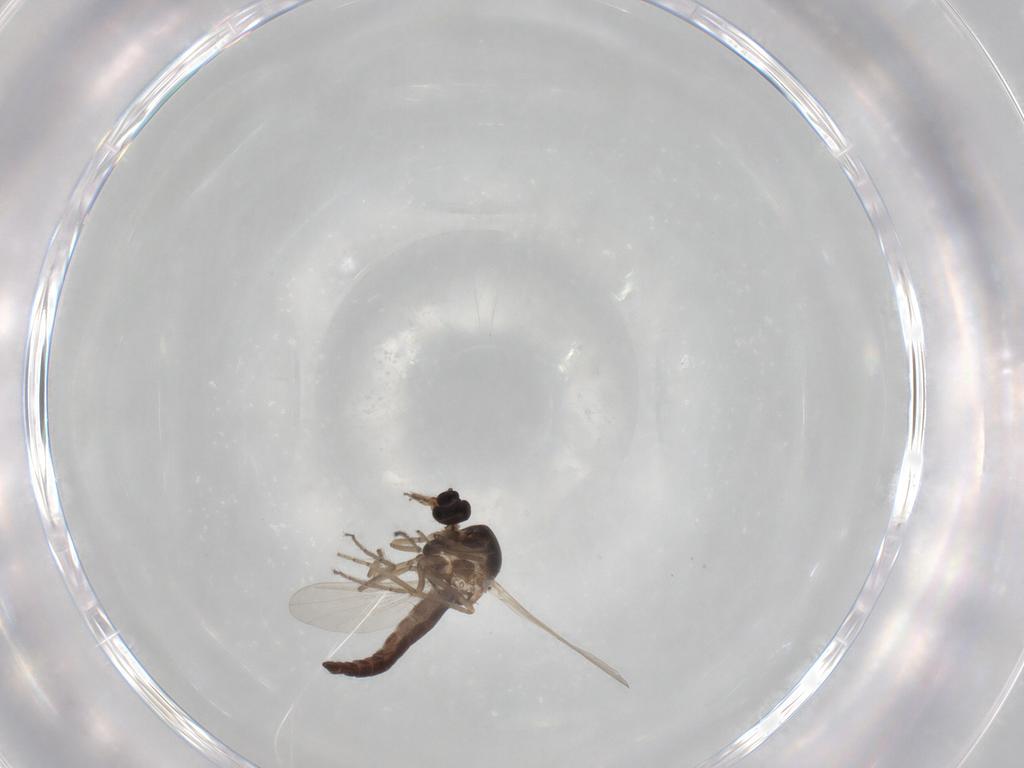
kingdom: Animalia
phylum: Arthropoda
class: Insecta
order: Diptera
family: Ceratopogonidae
